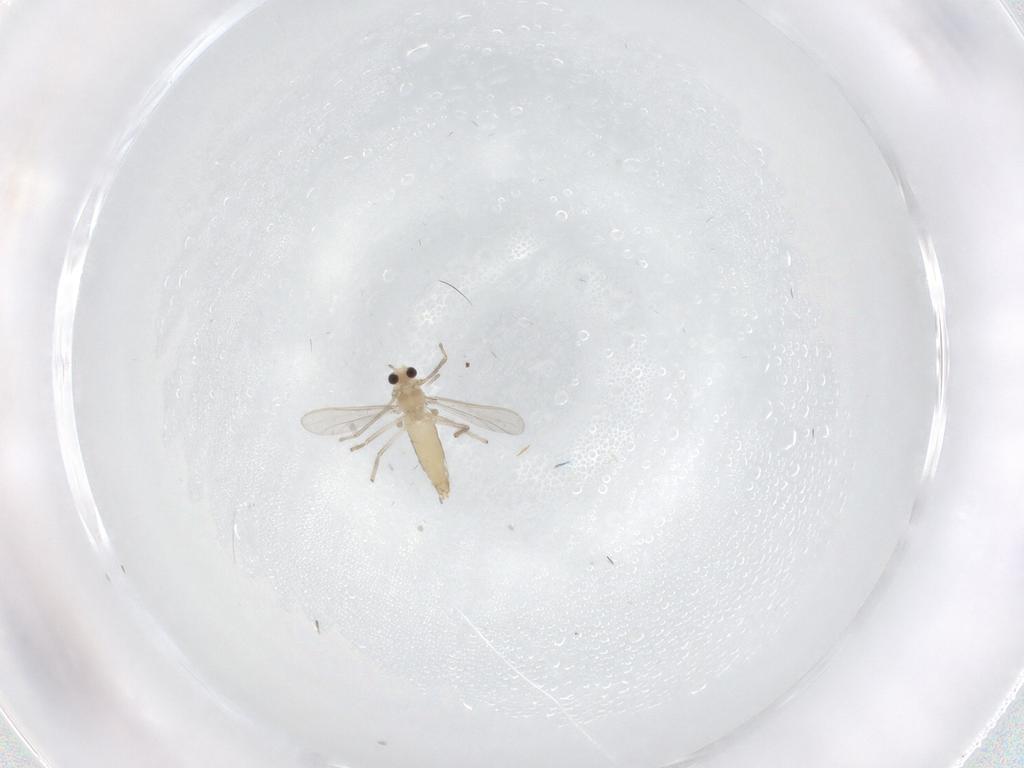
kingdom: Animalia
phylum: Arthropoda
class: Insecta
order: Diptera
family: Chironomidae
